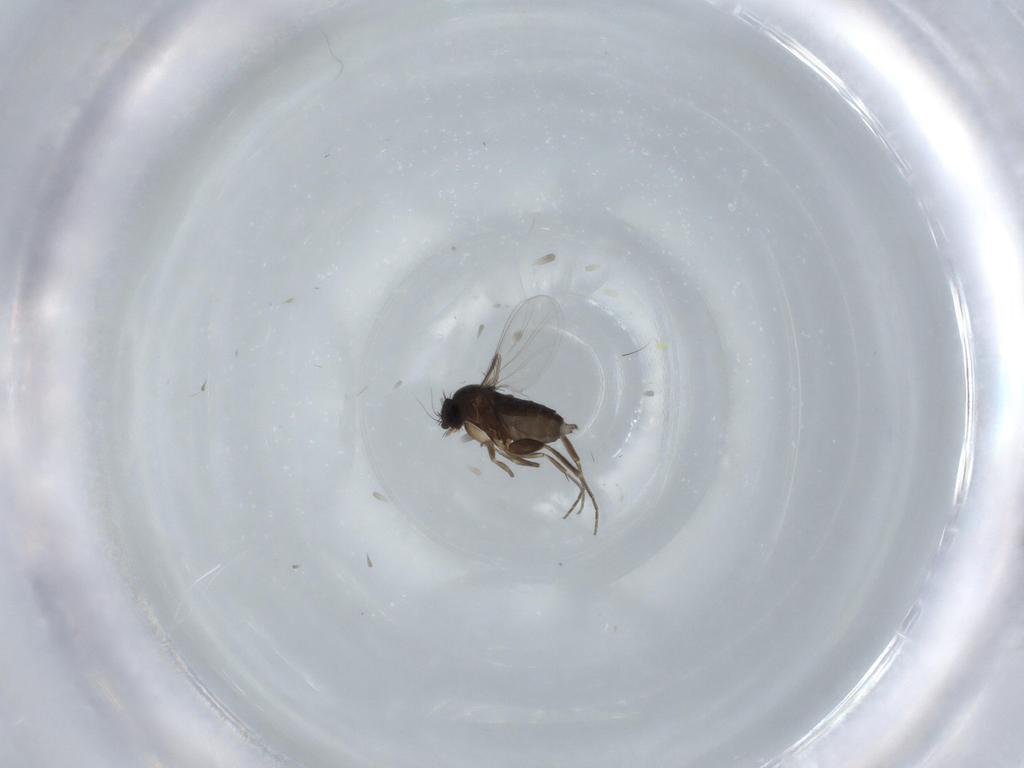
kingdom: Animalia
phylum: Arthropoda
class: Insecta
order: Diptera
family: Phoridae
